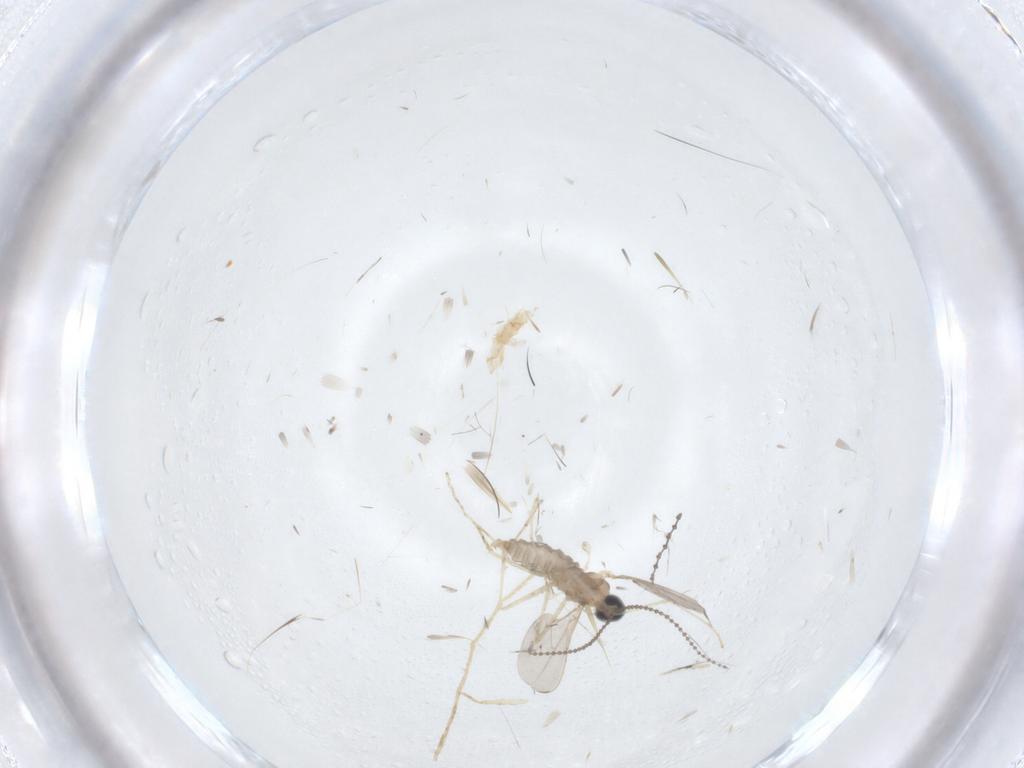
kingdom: Animalia
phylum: Arthropoda
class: Insecta
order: Diptera
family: Cecidomyiidae
